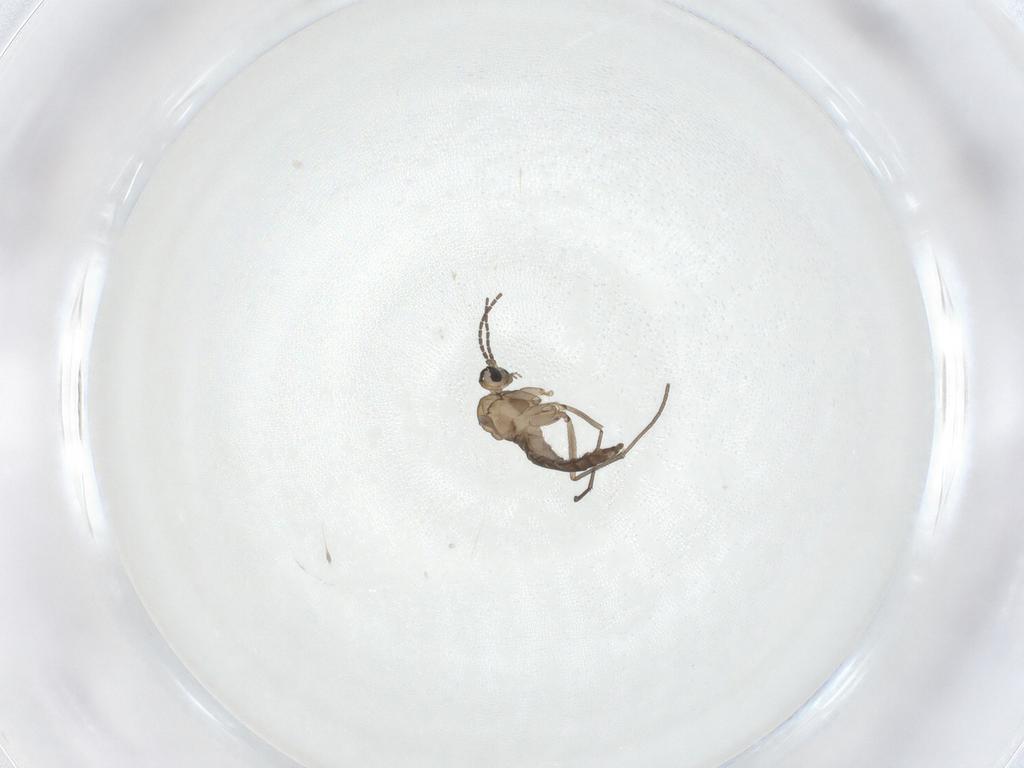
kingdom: Animalia
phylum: Arthropoda
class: Insecta
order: Diptera
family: Sciaridae
